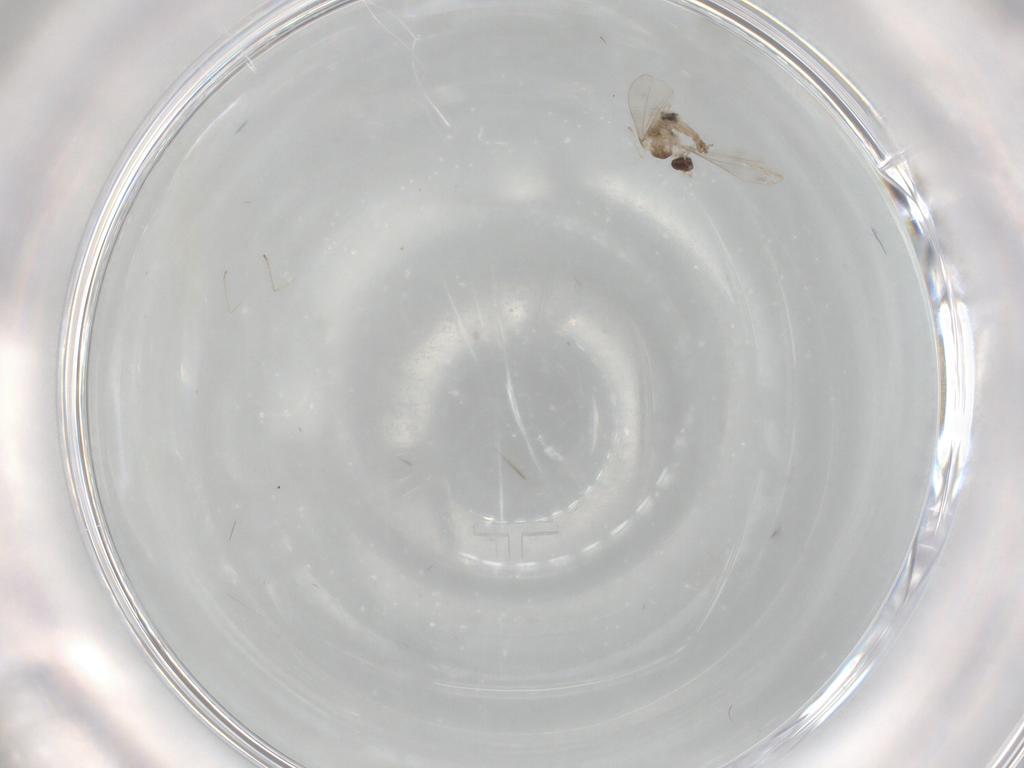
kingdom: Animalia
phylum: Arthropoda
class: Insecta
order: Diptera
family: Cecidomyiidae
